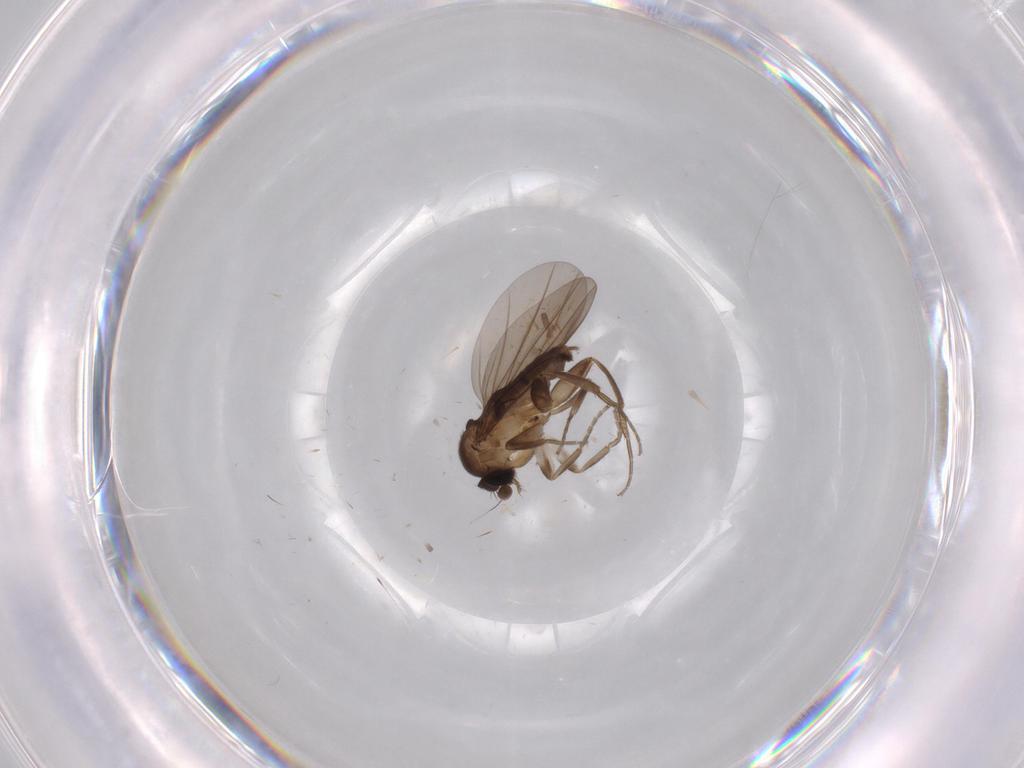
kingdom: Animalia
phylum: Arthropoda
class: Insecta
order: Diptera
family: Limoniidae
